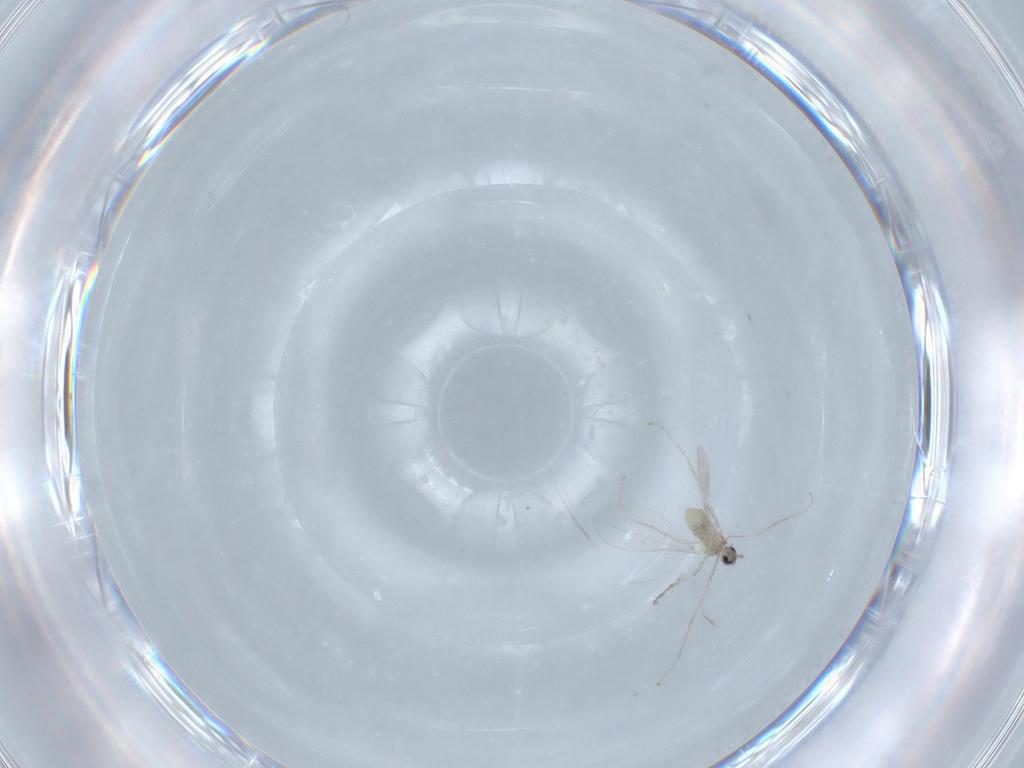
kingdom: Animalia
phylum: Arthropoda
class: Insecta
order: Diptera
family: Chironomidae
